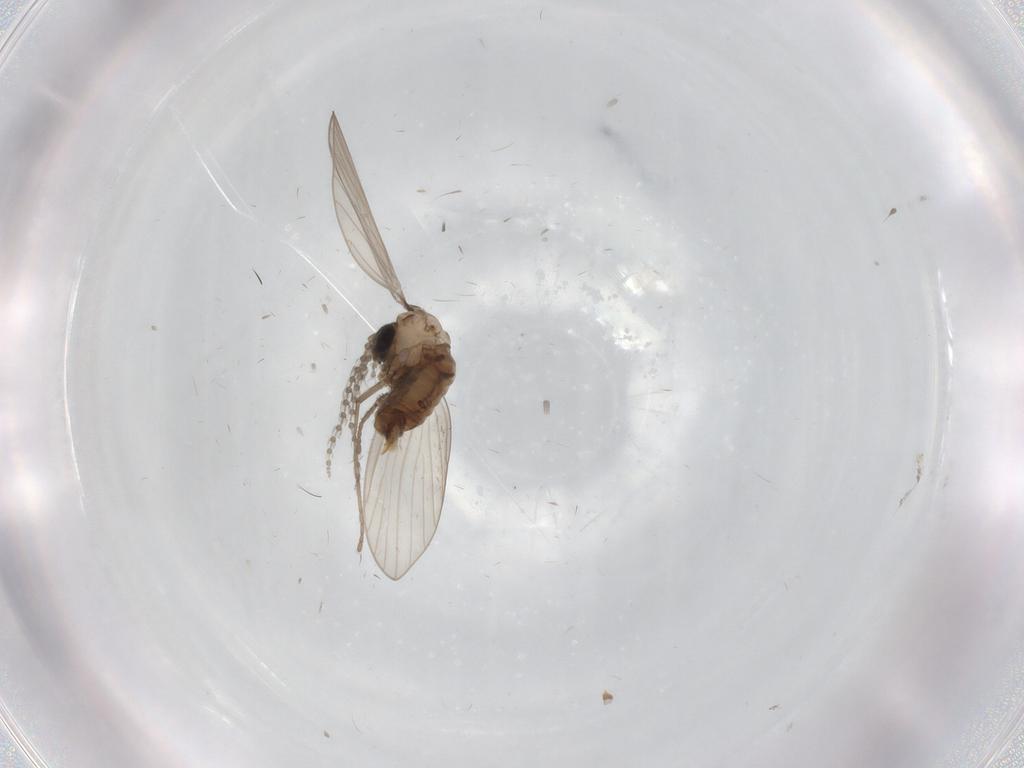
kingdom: Animalia
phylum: Arthropoda
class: Insecta
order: Diptera
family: Psychodidae
